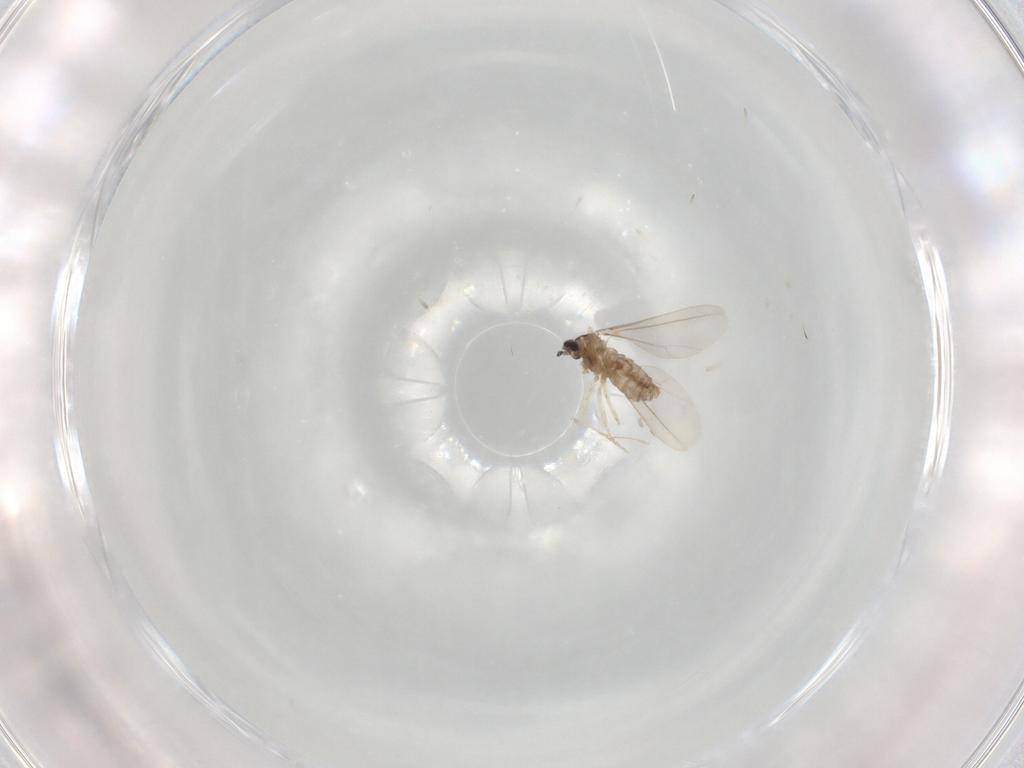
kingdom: Animalia
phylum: Arthropoda
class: Insecta
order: Diptera
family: Cecidomyiidae
